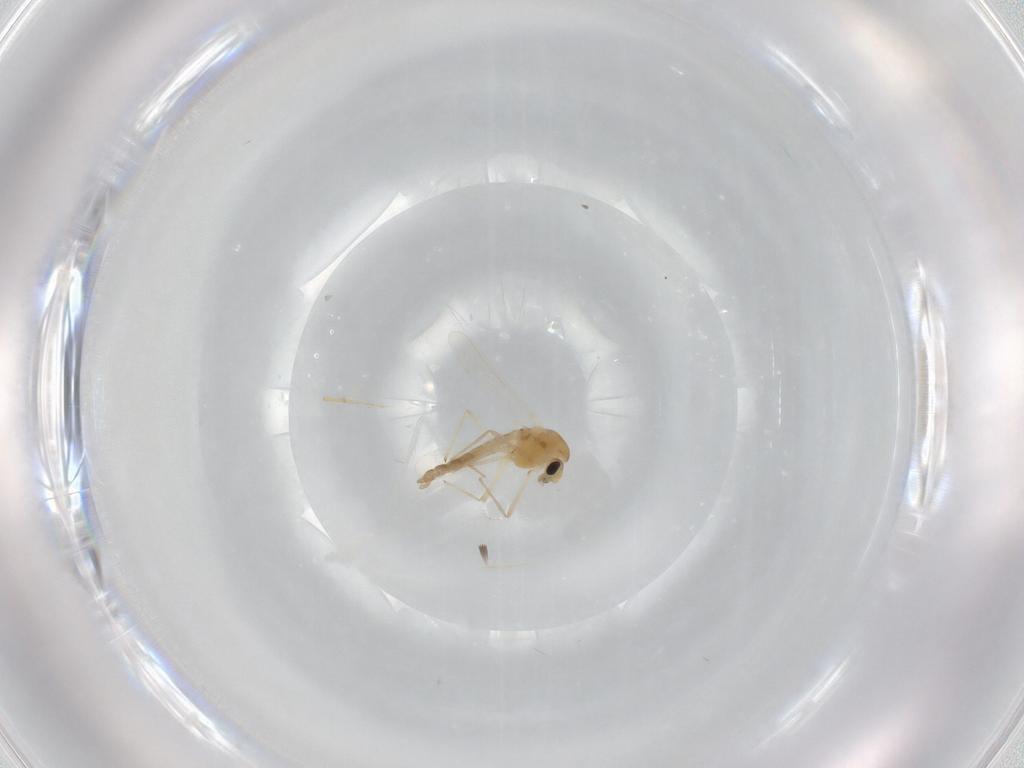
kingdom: Animalia
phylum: Arthropoda
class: Insecta
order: Diptera
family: Chironomidae
